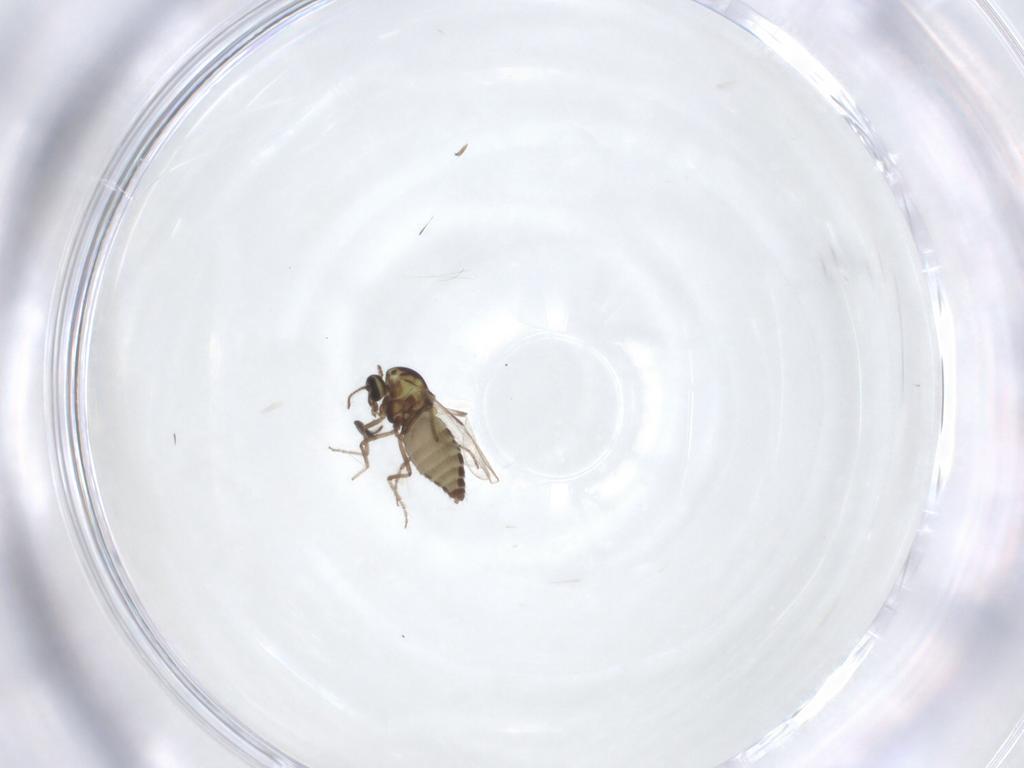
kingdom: Animalia
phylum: Arthropoda
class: Insecta
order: Diptera
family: Ceratopogonidae
